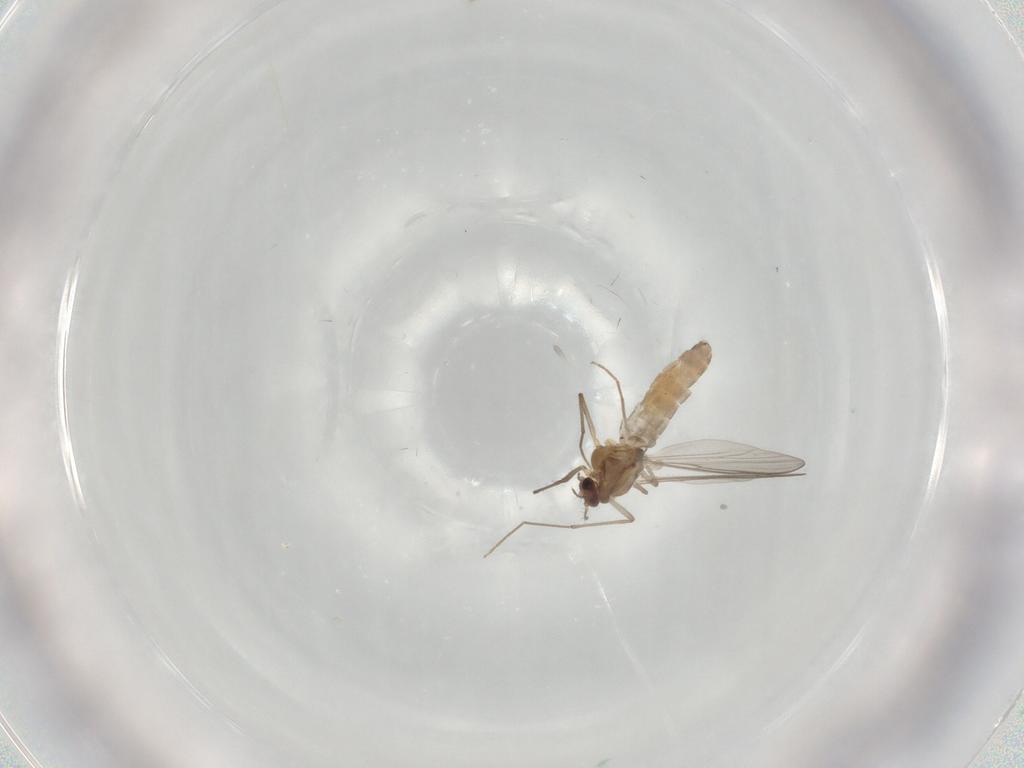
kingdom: Animalia
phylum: Arthropoda
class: Insecta
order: Diptera
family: Chironomidae
